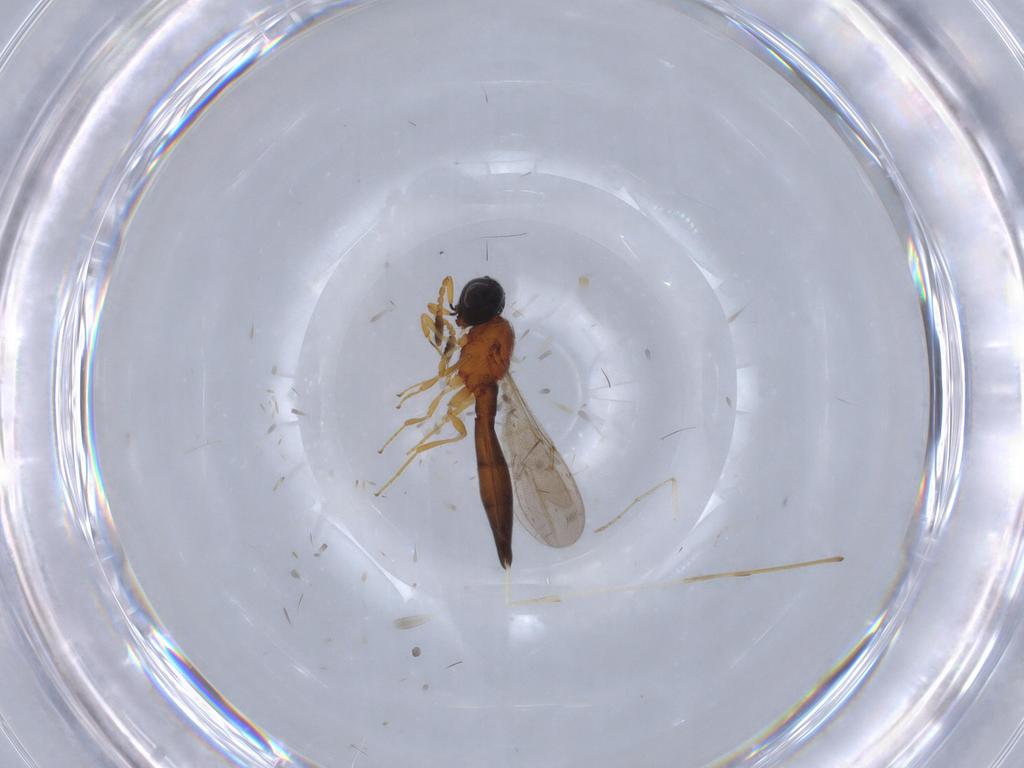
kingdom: Animalia
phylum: Arthropoda
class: Insecta
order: Hymenoptera
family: Scelionidae
